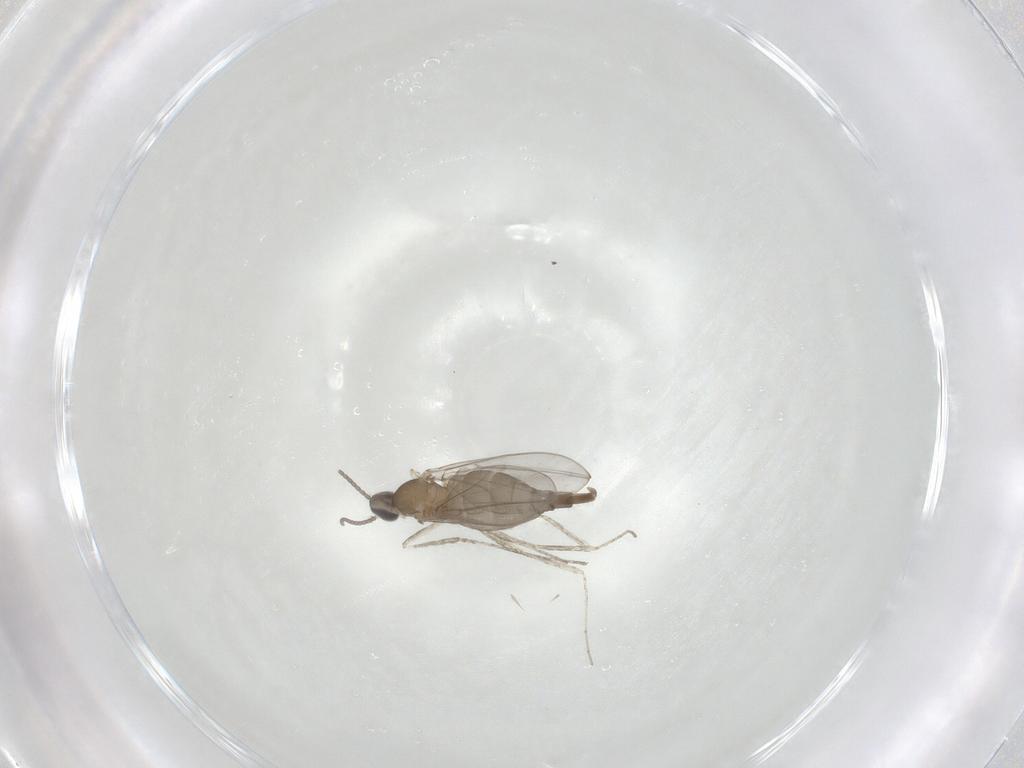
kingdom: Animalia
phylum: Arthropoda
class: Insecta
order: Diptera
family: Cecidomyiidae
